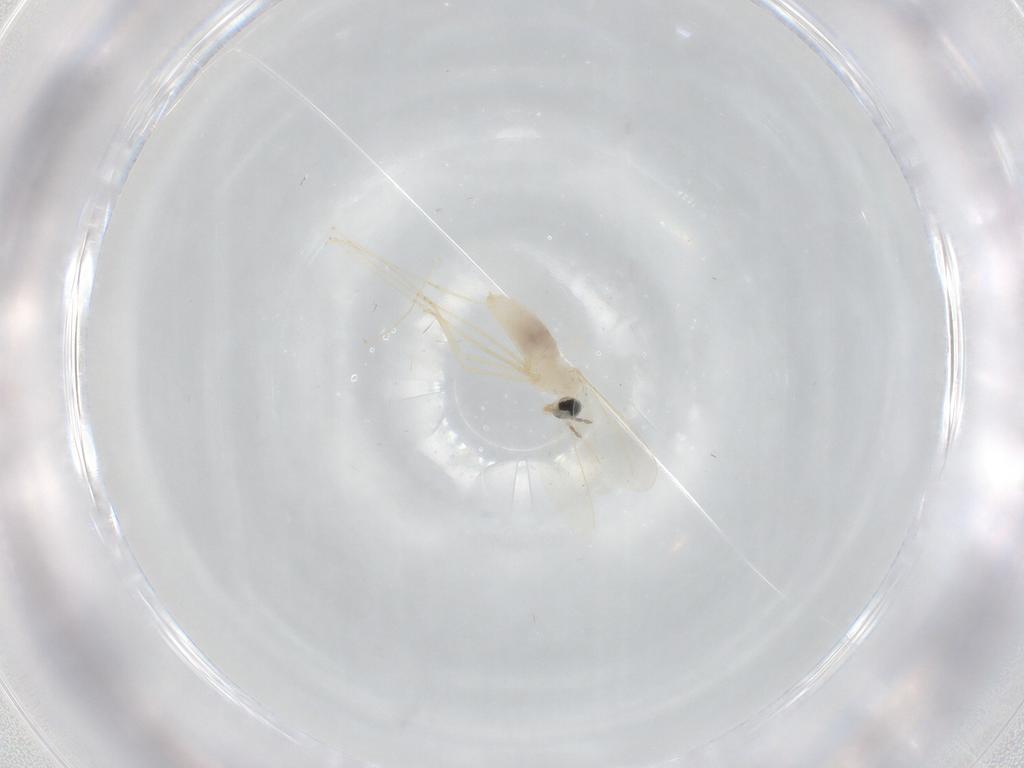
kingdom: Animalia
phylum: Arthropoda
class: Insecta
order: Diptera
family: Cecidomyiidae
